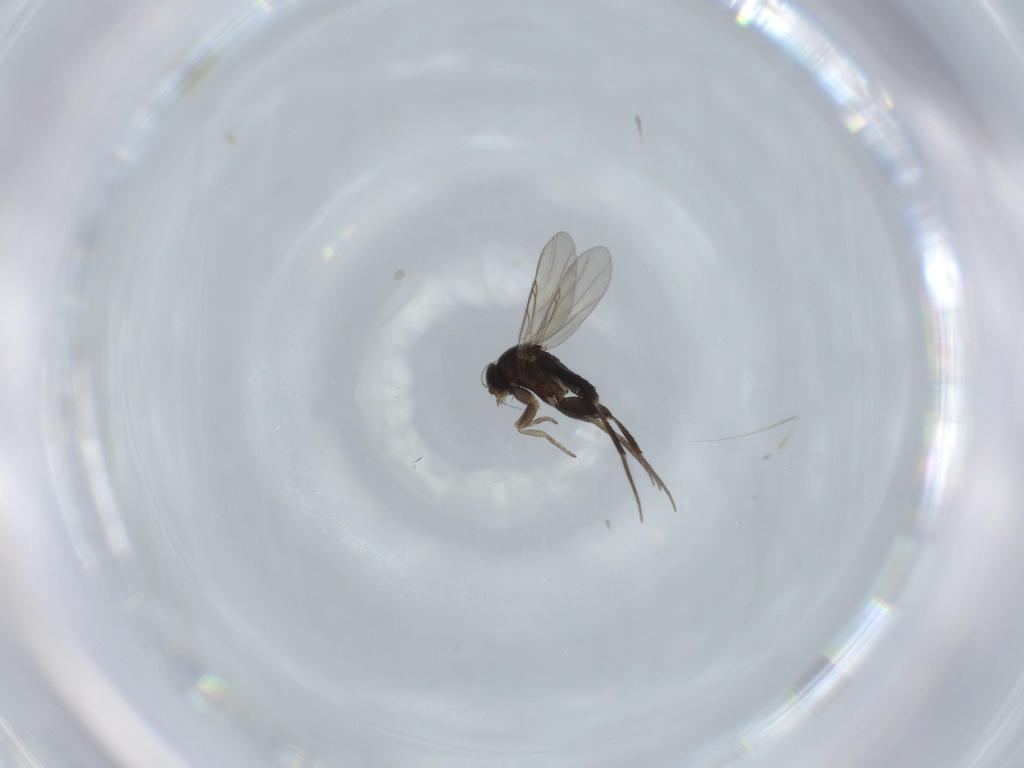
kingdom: Animalia
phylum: Arthropoda
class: Insecta
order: Diptera
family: Phoridae
